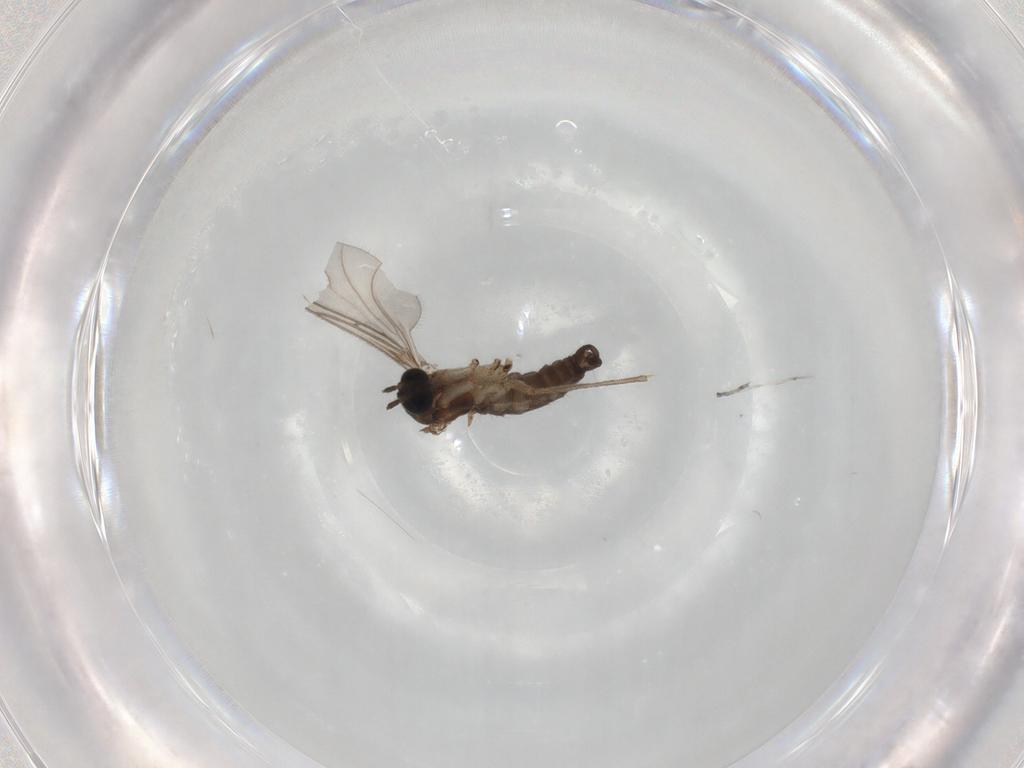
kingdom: Animalia
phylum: Arthropoda
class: Insecta
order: Diptera
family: Sciaridae
